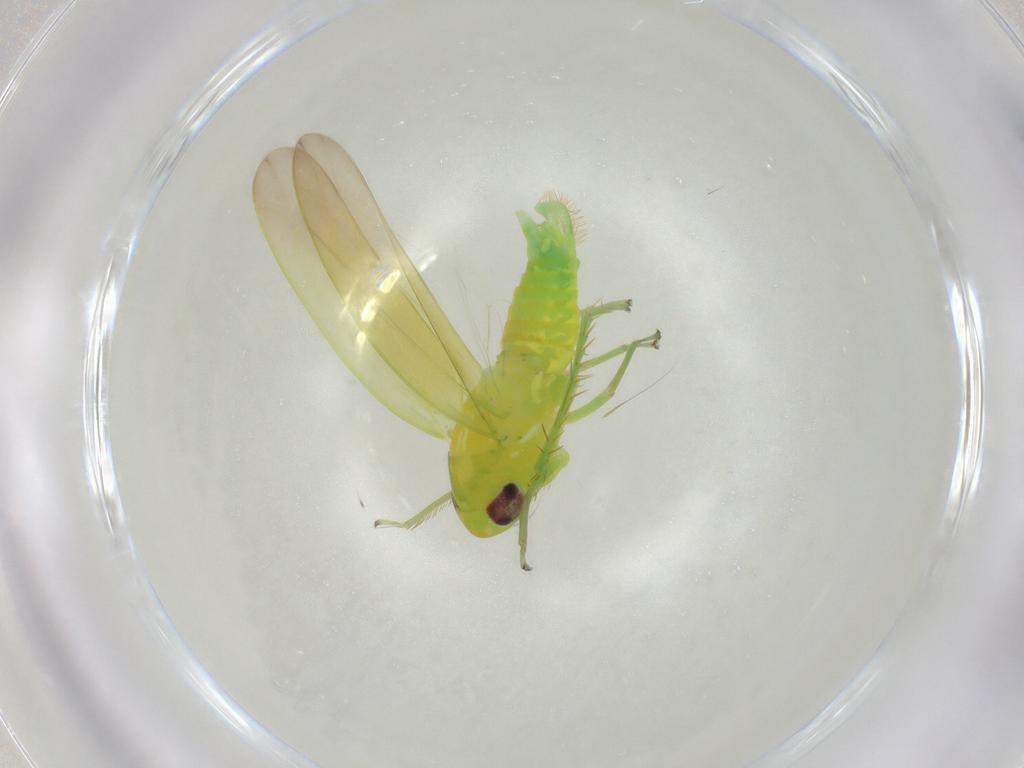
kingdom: Animalia
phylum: Arthropoda
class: Insecta
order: Hemiptera
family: Cicadellidae
